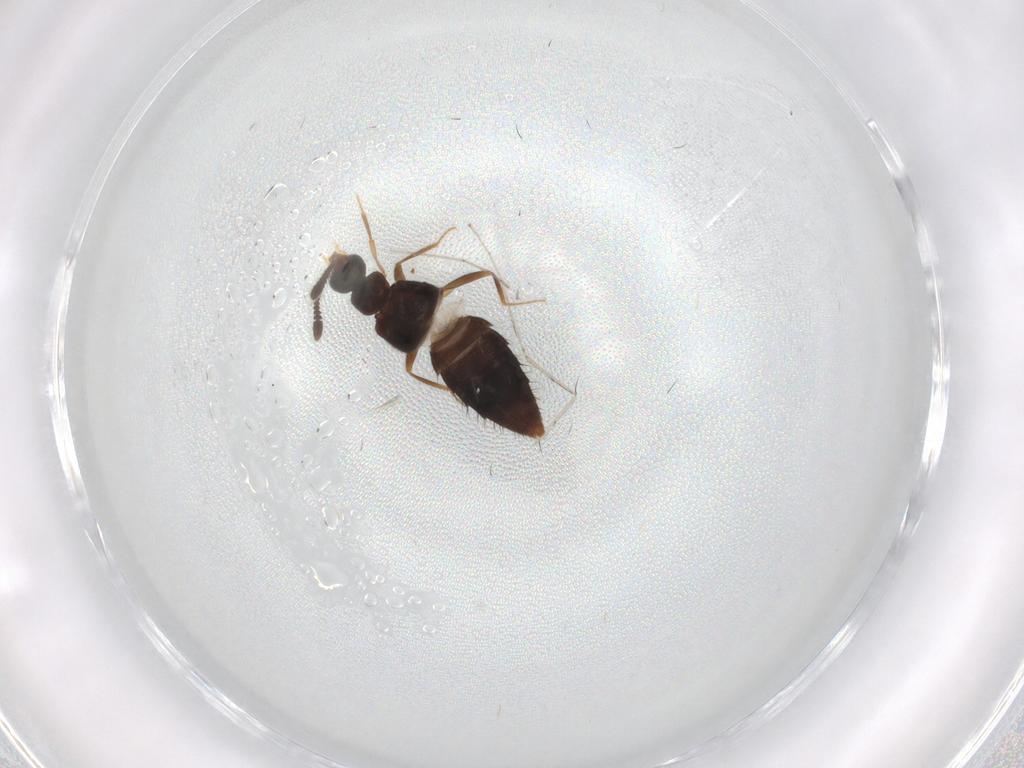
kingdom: Animalia
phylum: Arthropoda
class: Insecta
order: Coleoptera
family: Staphylinidae
